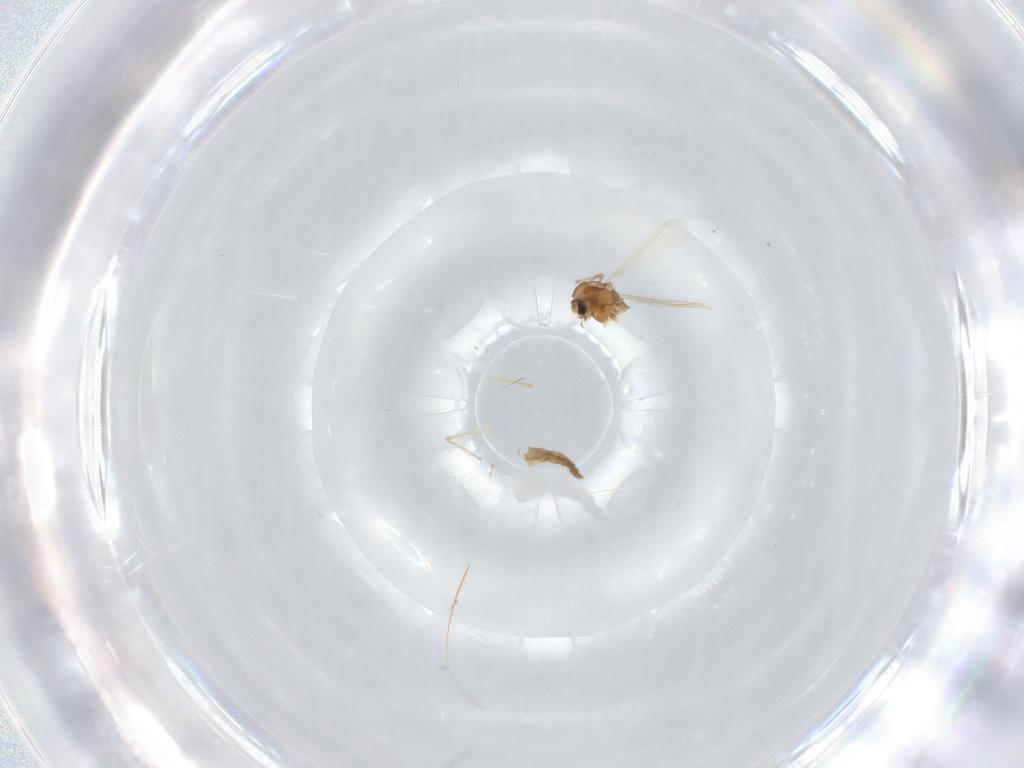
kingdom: Animalia
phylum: Arthropoda
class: Insecta
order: Diptera
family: Chironomidae
